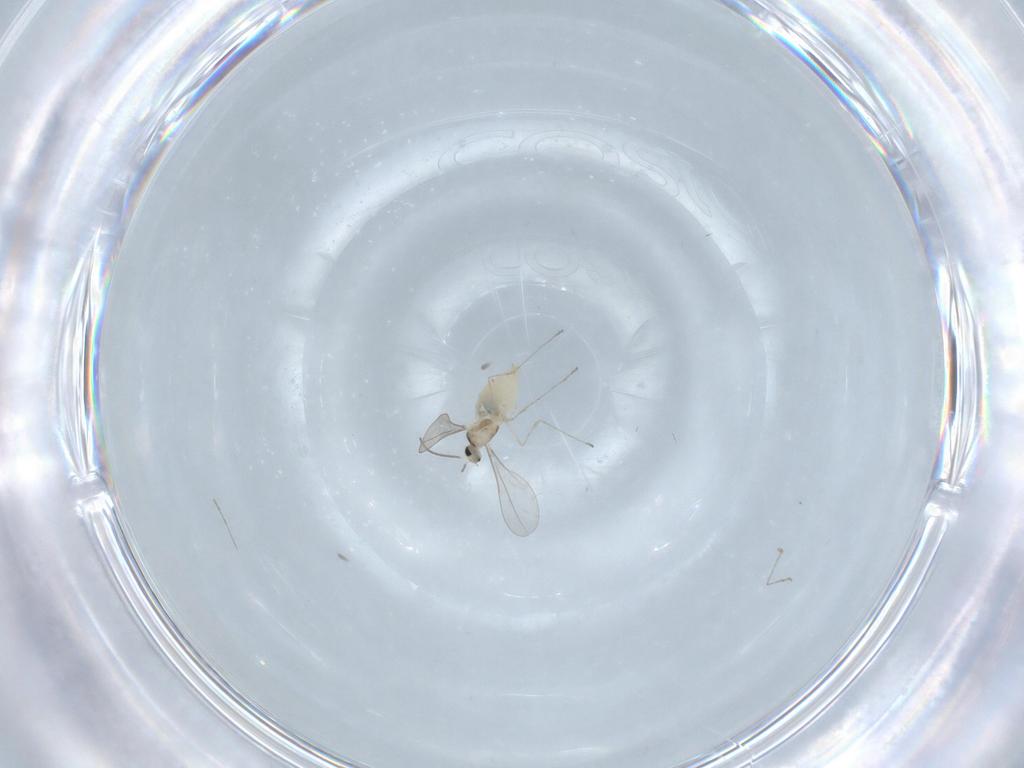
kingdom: Animalia
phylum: Arthropoda
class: Insecta
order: Diptera
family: Cecidomyiidae
